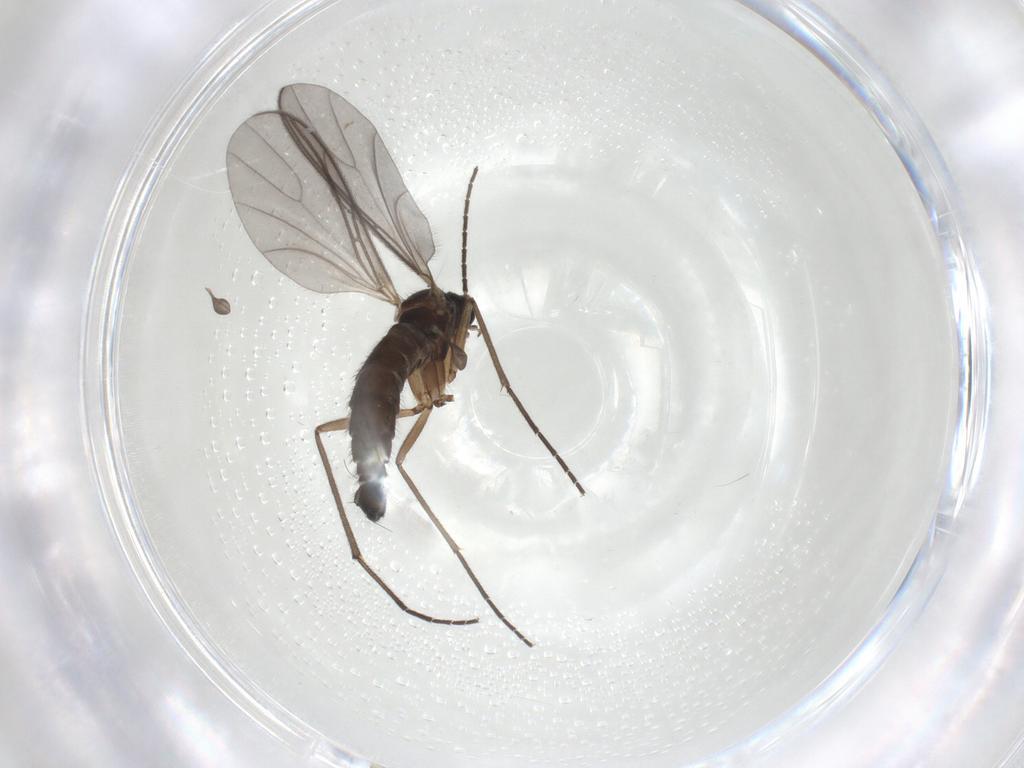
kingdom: Animalia
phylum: Arthropoda
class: Insecta
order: Diptera
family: Sciaridae
